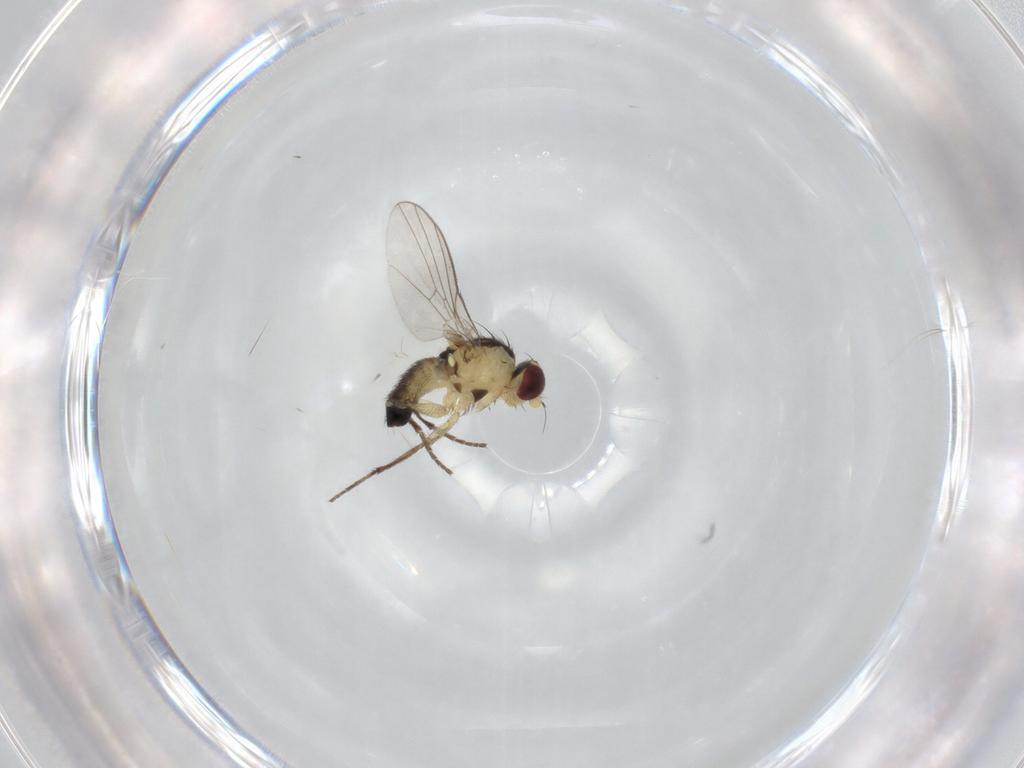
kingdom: Animalia
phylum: Arthropoda
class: Insecta
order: Diptera
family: Agromyzidae
